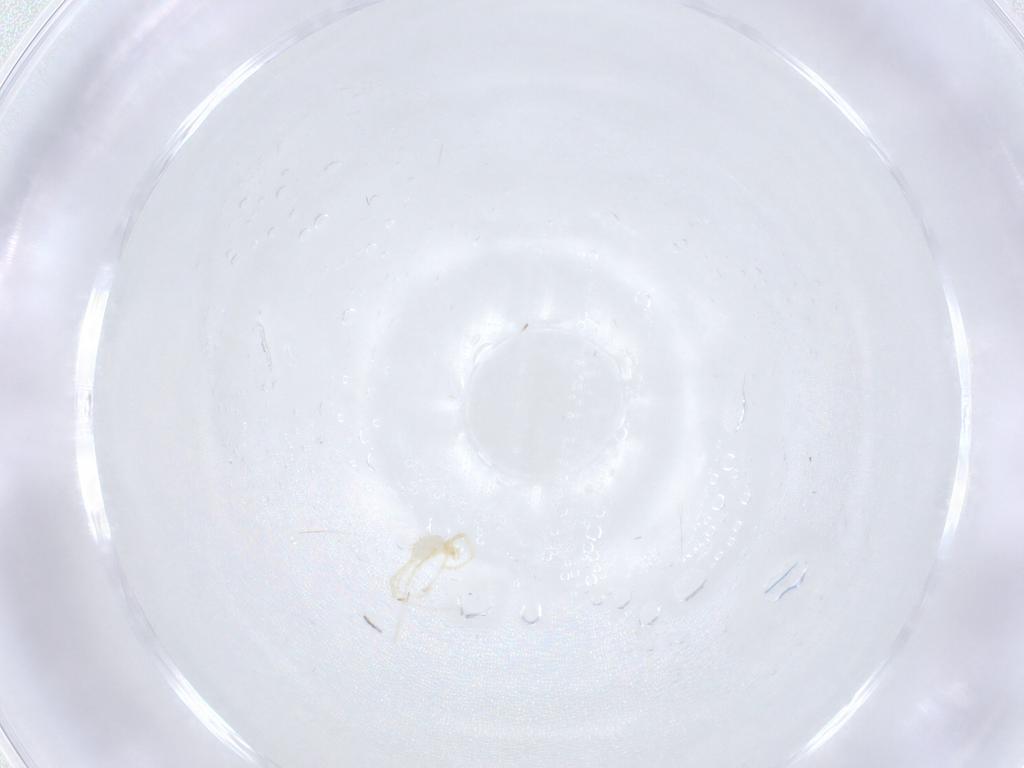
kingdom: Animalia
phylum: Arthropoda
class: Arachnida
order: Trombidiformes
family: Erythraeidae
